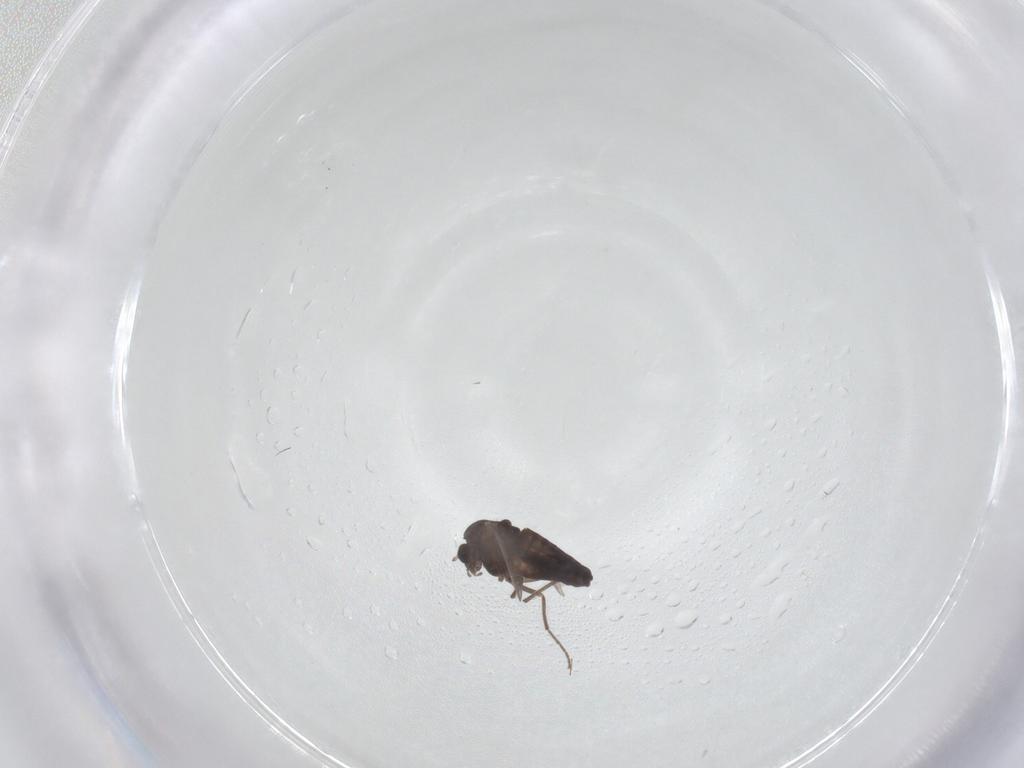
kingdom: Animalia
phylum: Arthropoda
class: Insecta
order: Diptera
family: Chironomidae
